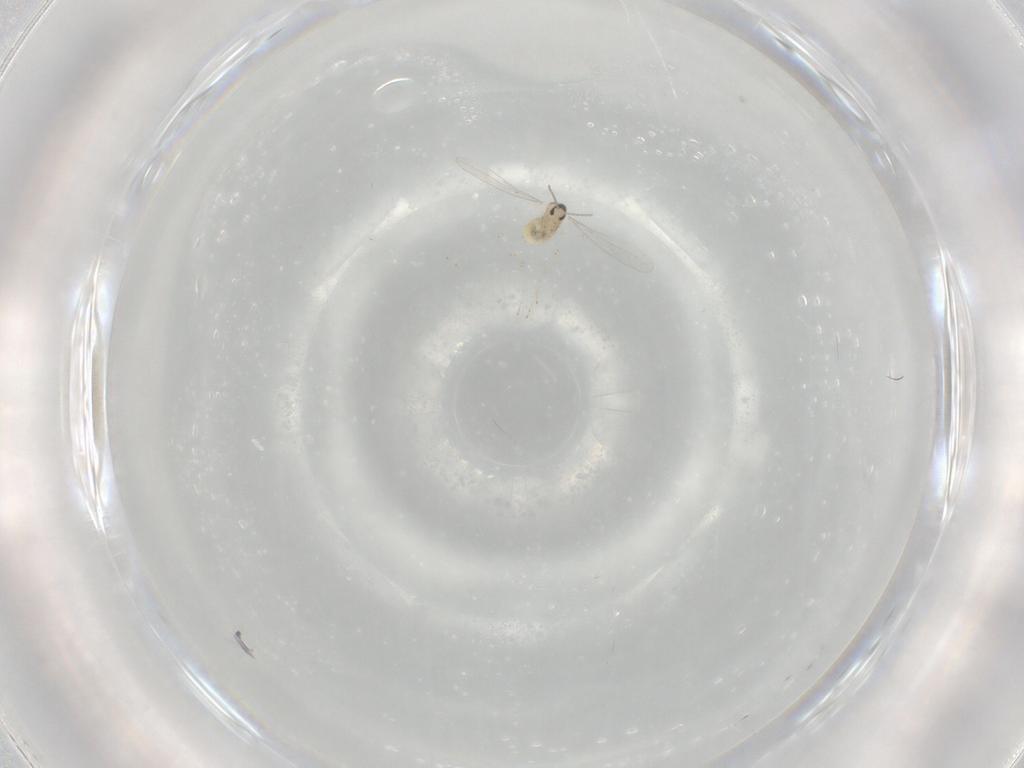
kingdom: Animalia
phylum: Arthropoda
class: Insecta
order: Diptera
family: Cecidomyiidae
